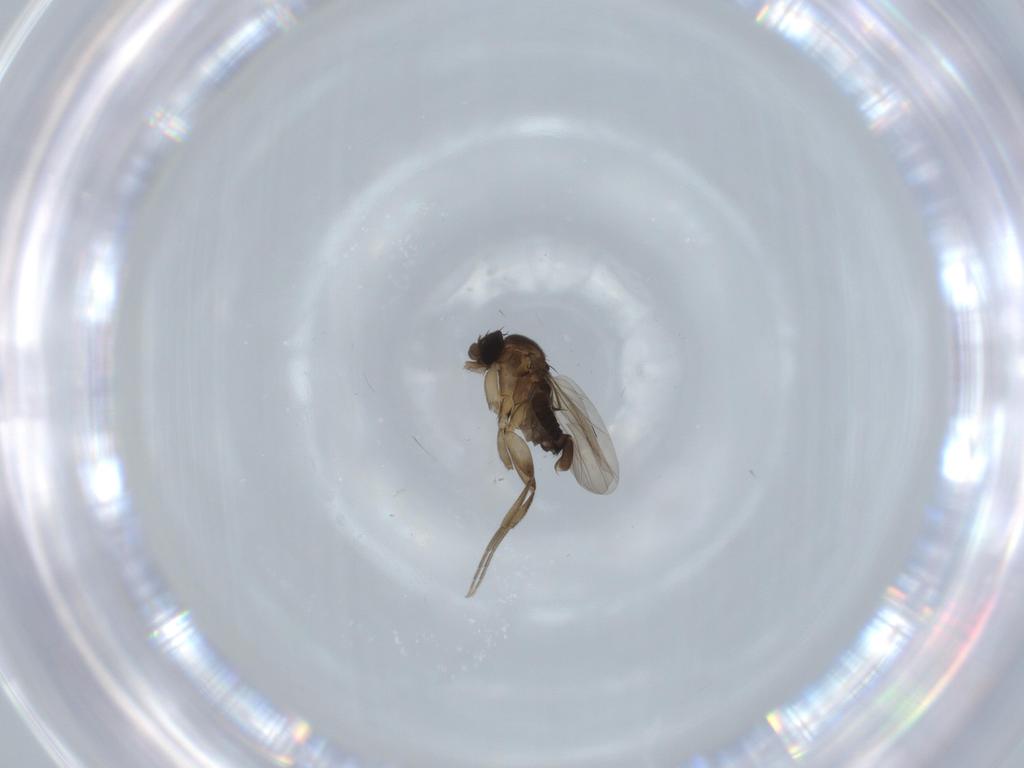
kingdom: Animalia
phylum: Arthropoda
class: Insecta
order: Diptera
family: Phoridae
